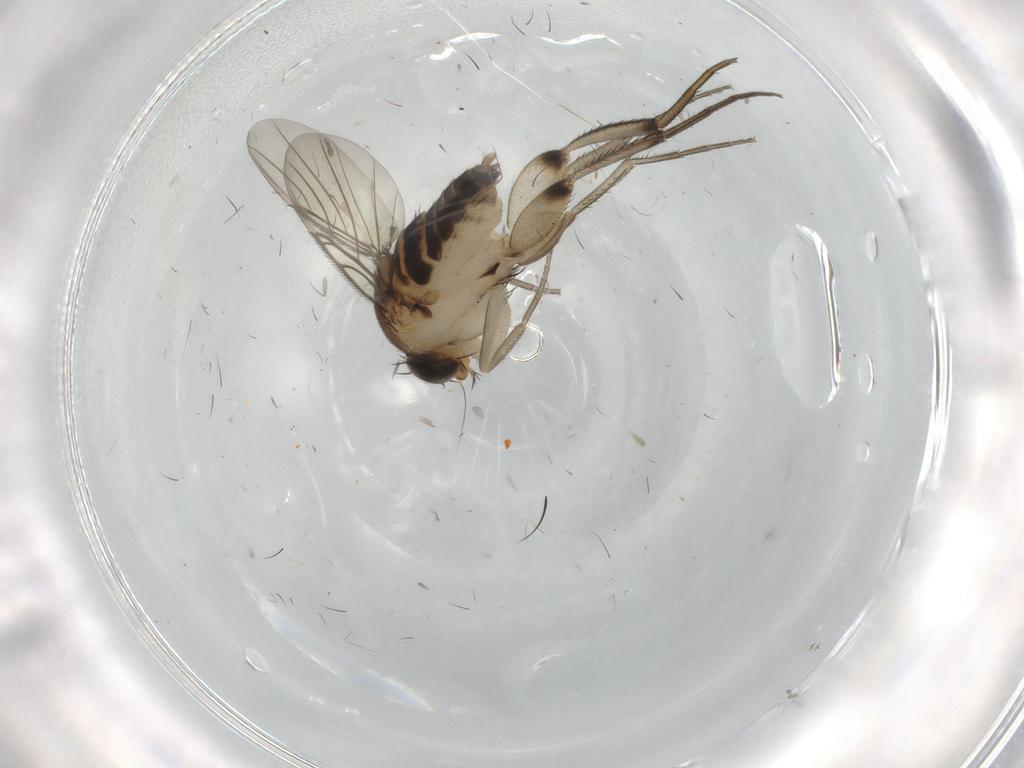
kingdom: Animalia
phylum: Arthropoda
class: Insecta
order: Diptera
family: Phoridae
